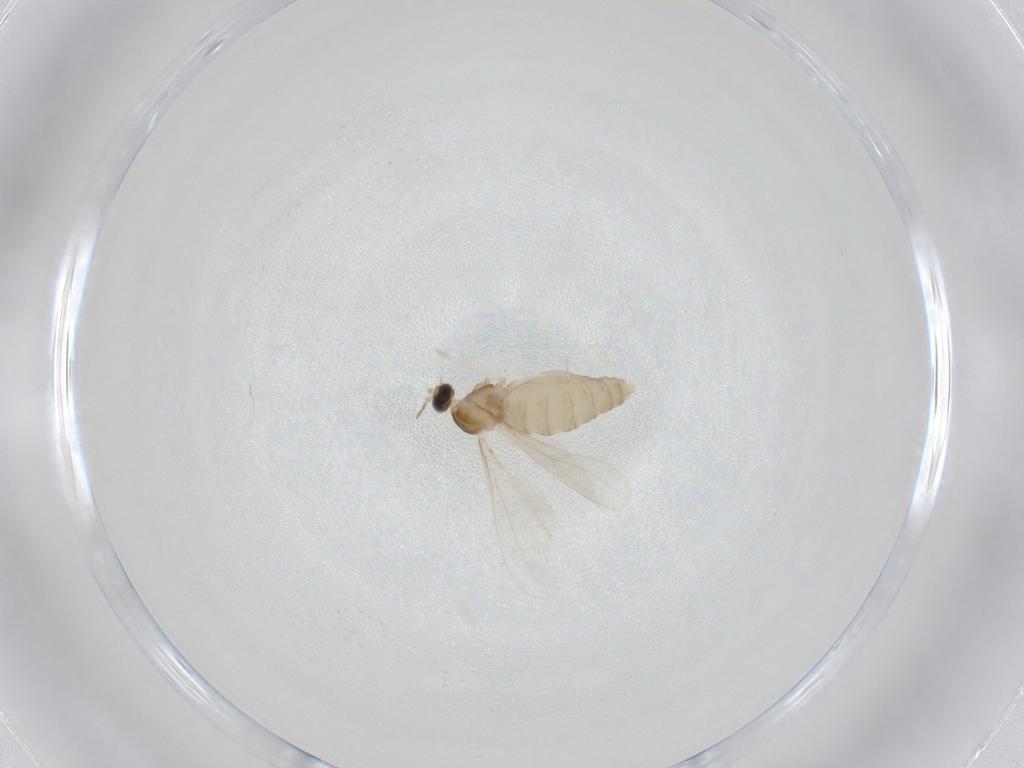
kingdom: Animalia
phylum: Arthropoda
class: Insecta
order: Diptera
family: Cecidomyiidae
